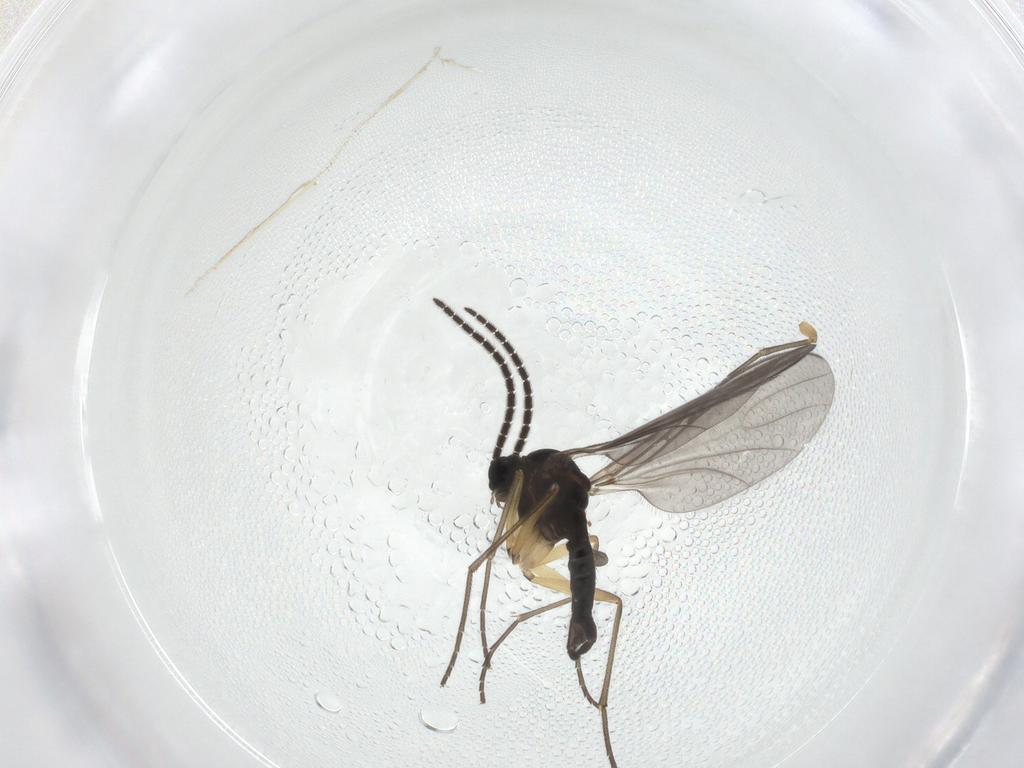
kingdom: Animalia
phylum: Arthropoda
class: Insecta
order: Diptera
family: Sciaridae
